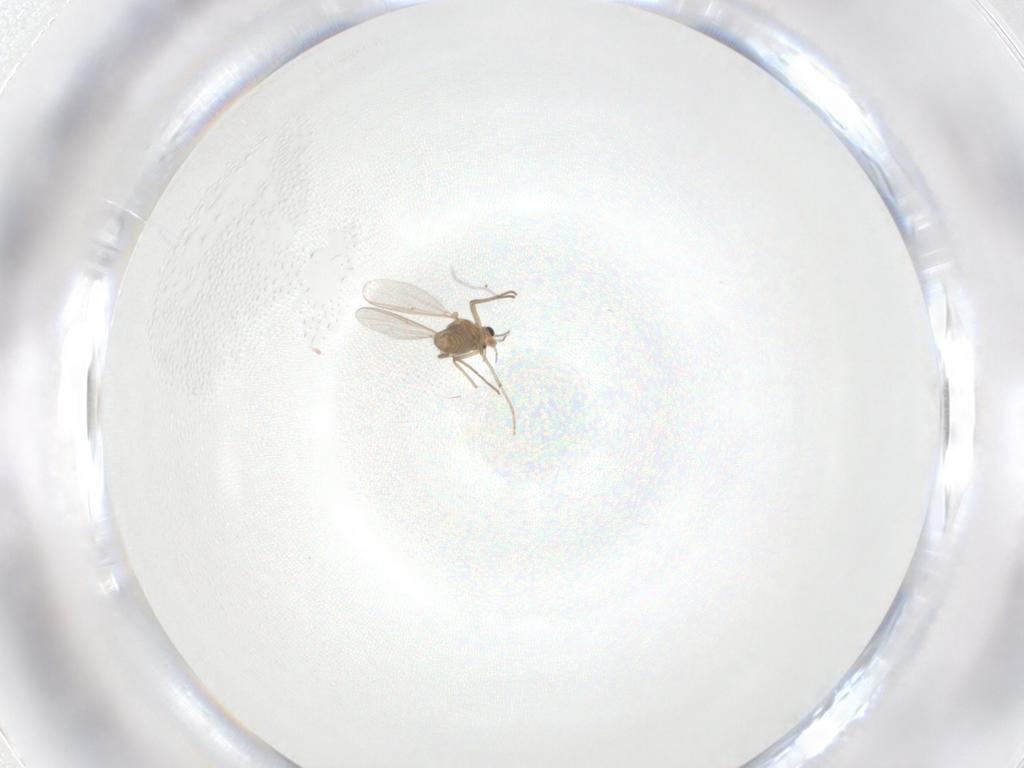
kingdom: Animalia
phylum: Arthropoda
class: Insecta
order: Diptera
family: Chironomidae
